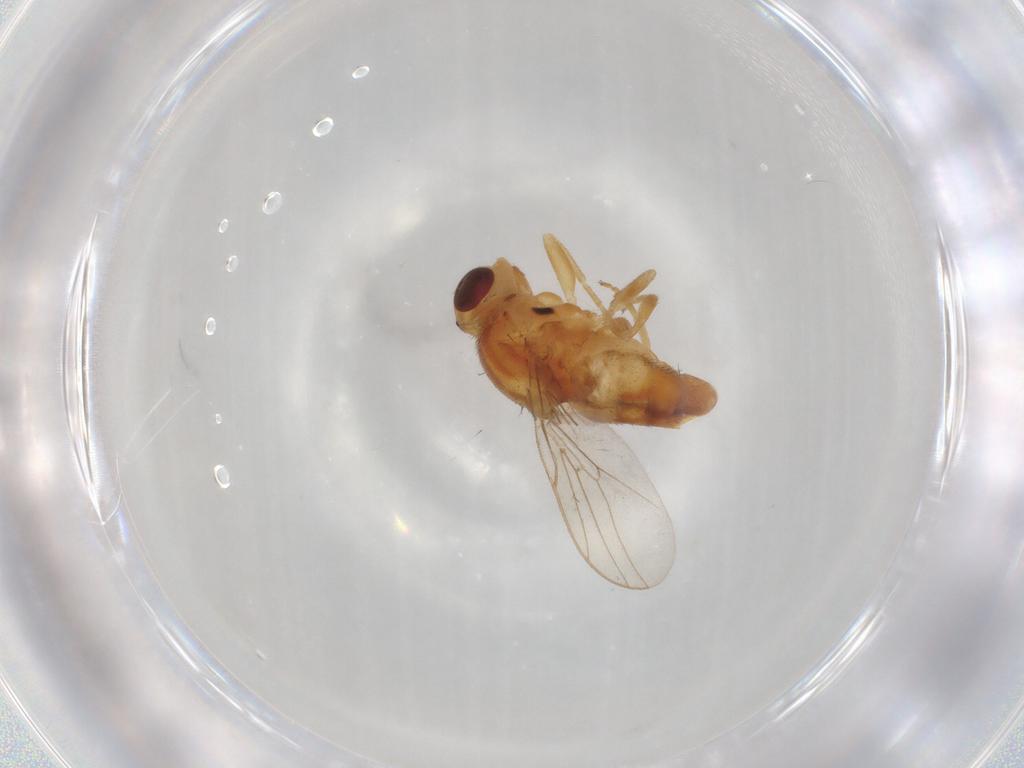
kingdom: Animalia
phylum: Arthropoda
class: Insecta
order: Diptera
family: Chloropidae
